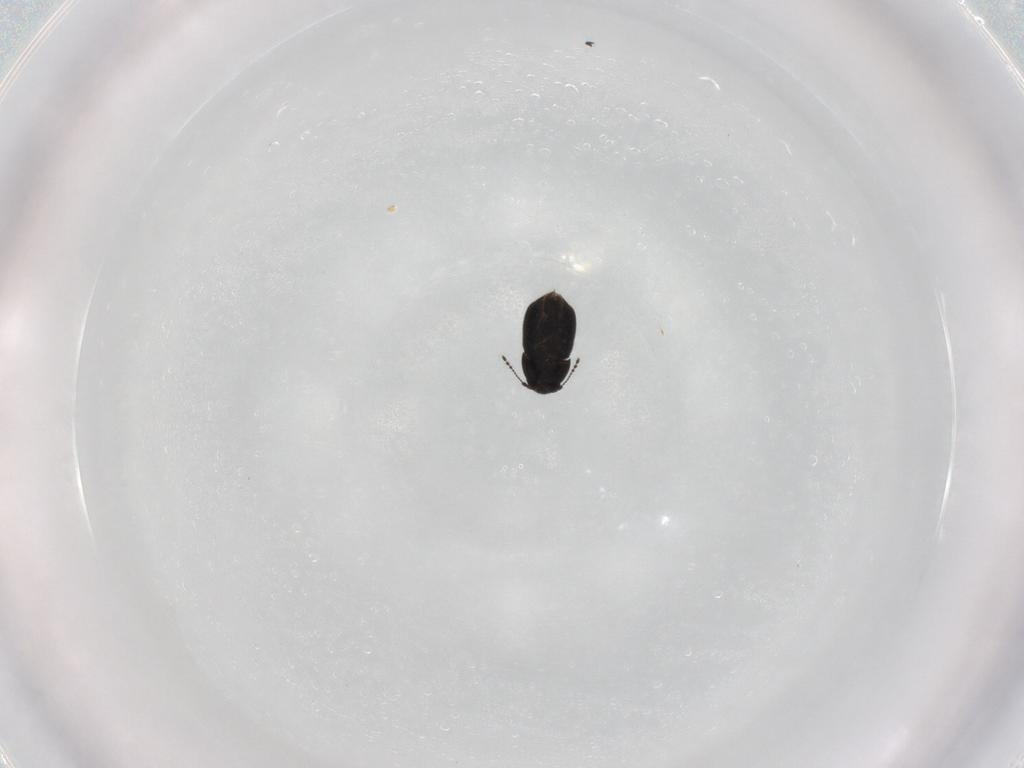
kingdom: Animalia
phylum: Arthropoda
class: Insecta
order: Coleoptera
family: Ptiliidae
